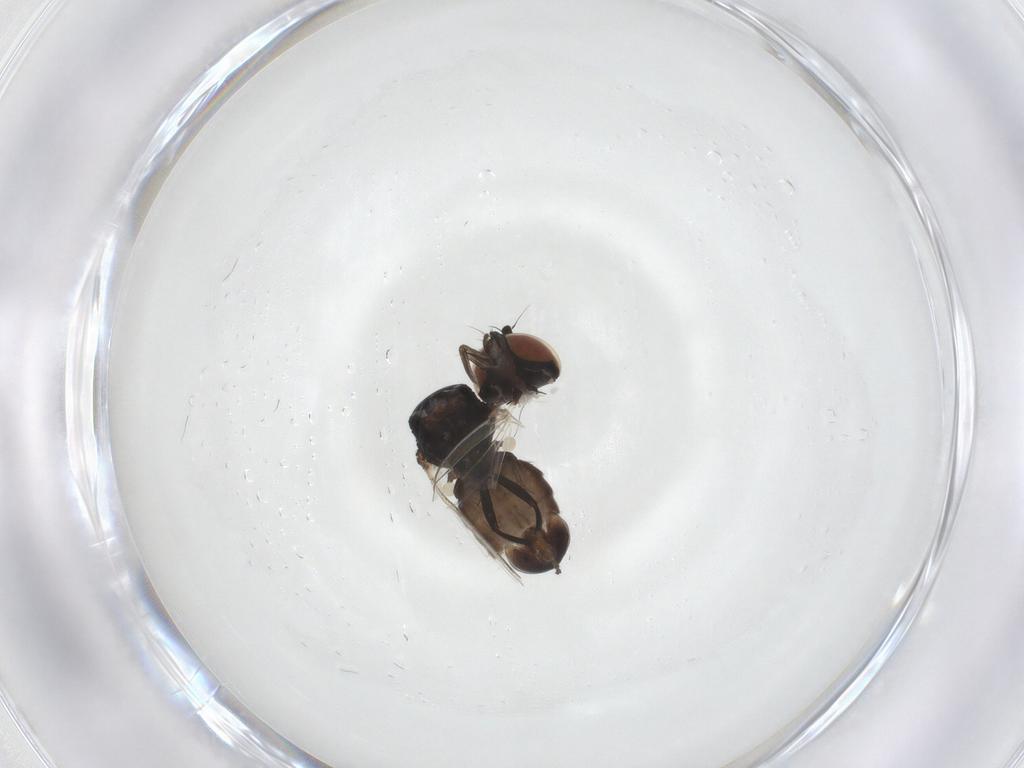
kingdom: Animalia
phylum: Arthropoda
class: Insecta
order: Diptera
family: Milichiidae
